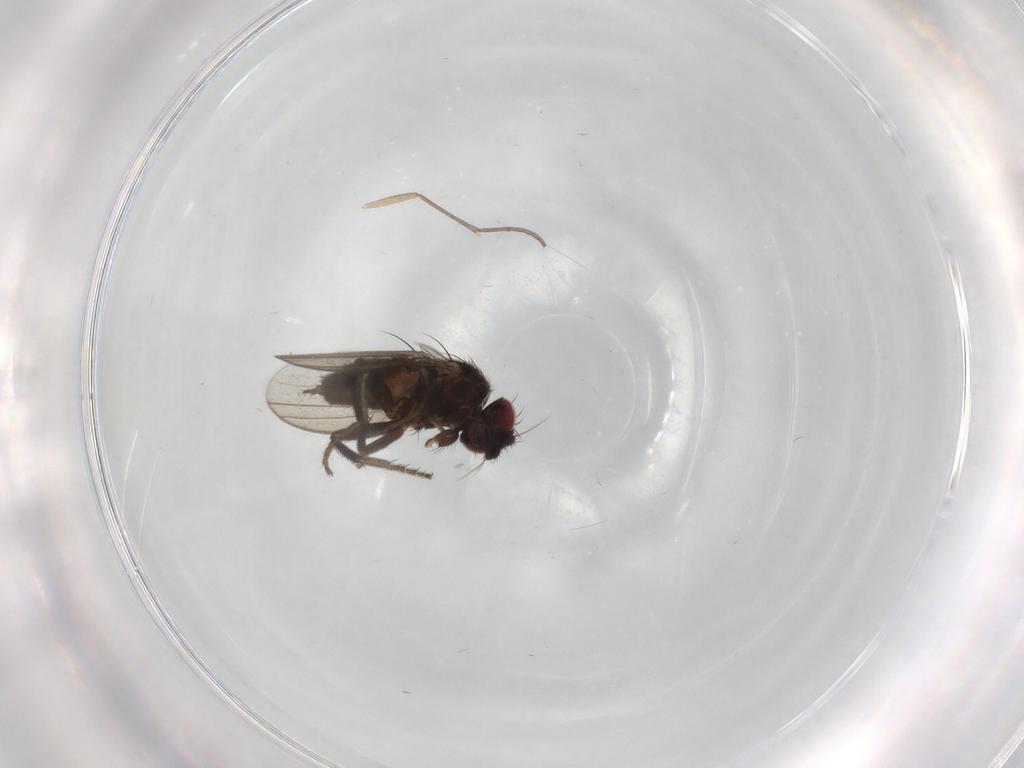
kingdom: Animalia
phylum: Arthropoda
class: Insecta
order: Diptera
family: Milichiidae
